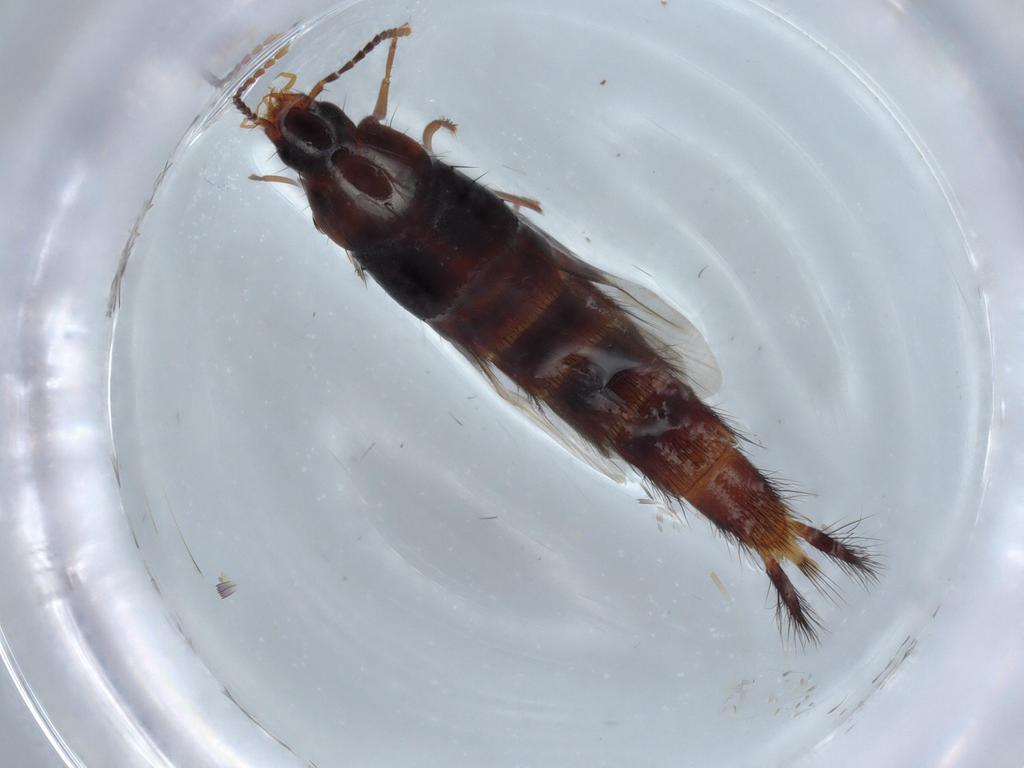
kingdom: Animalia
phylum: Arthropoda
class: Insecta
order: Coleoptera
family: Staphylinidae
